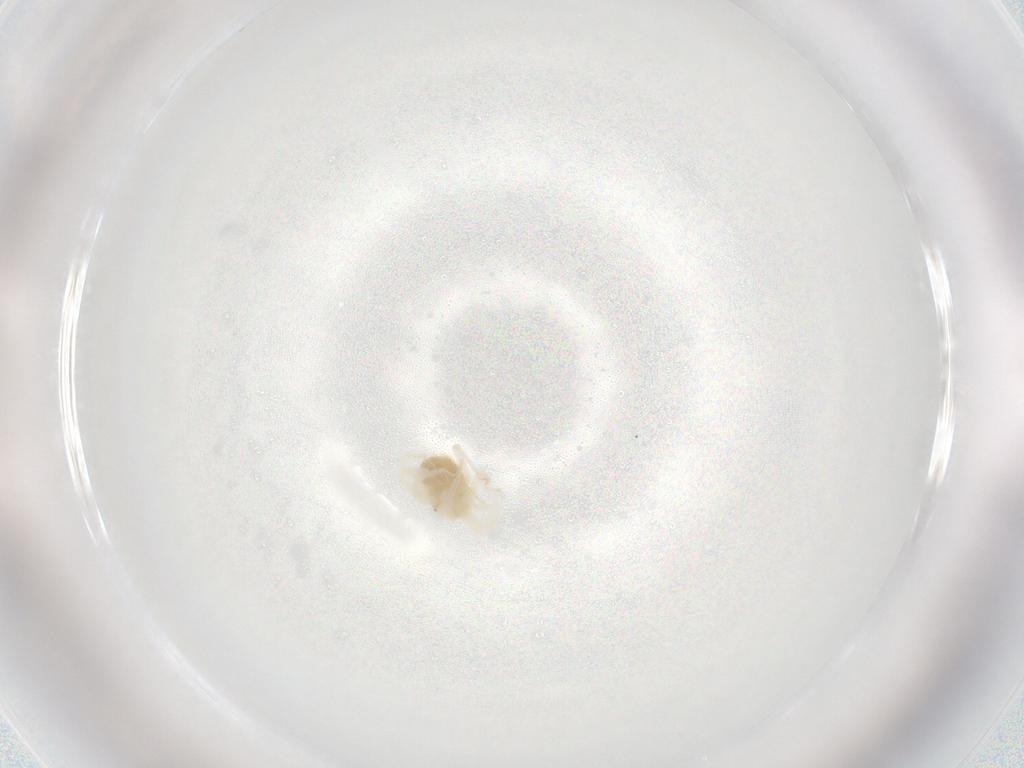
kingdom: Animalia
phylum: Arthropoda
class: Arachnida
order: Trombidiformes
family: Anystidae
